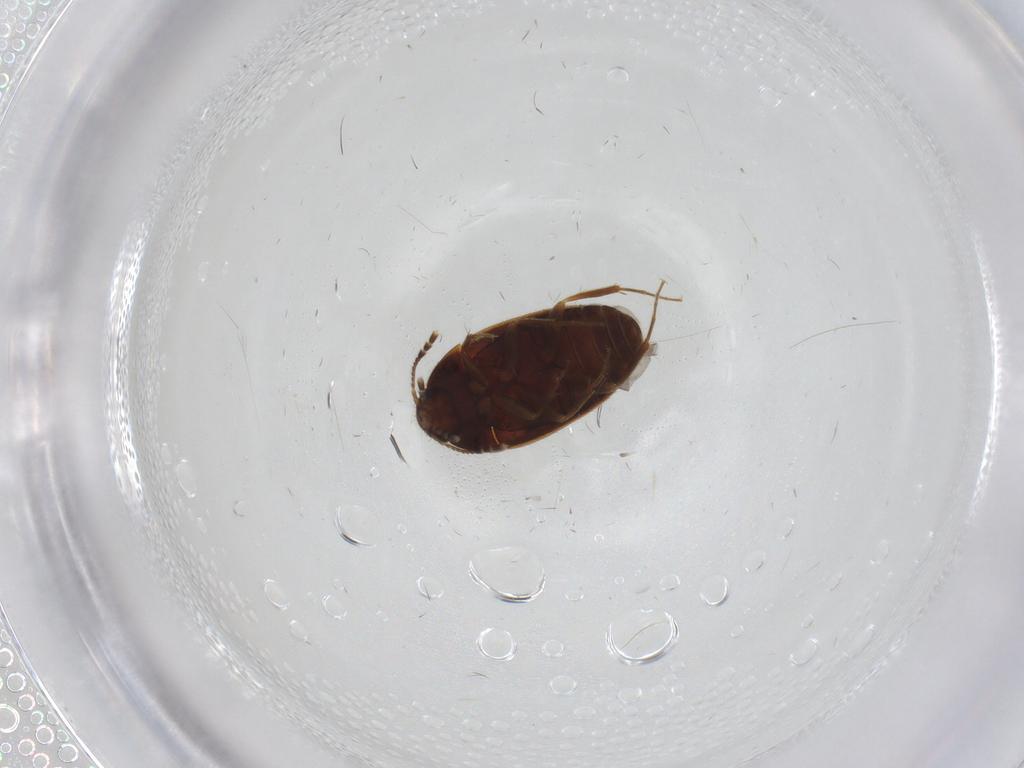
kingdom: Animalia
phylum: Arthropoda
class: Insecta
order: Coleoptera
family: Mycetophagidae
